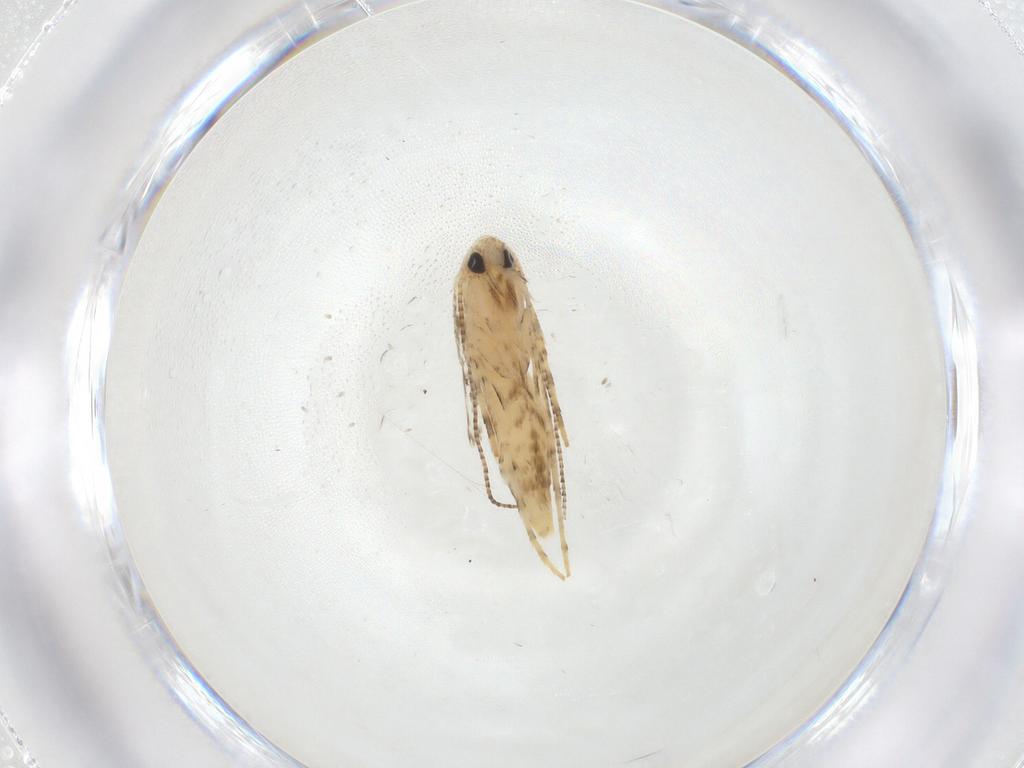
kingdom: Animalia
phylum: Arthropoda
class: Insecta
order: Lepidoptera
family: Geometridae
